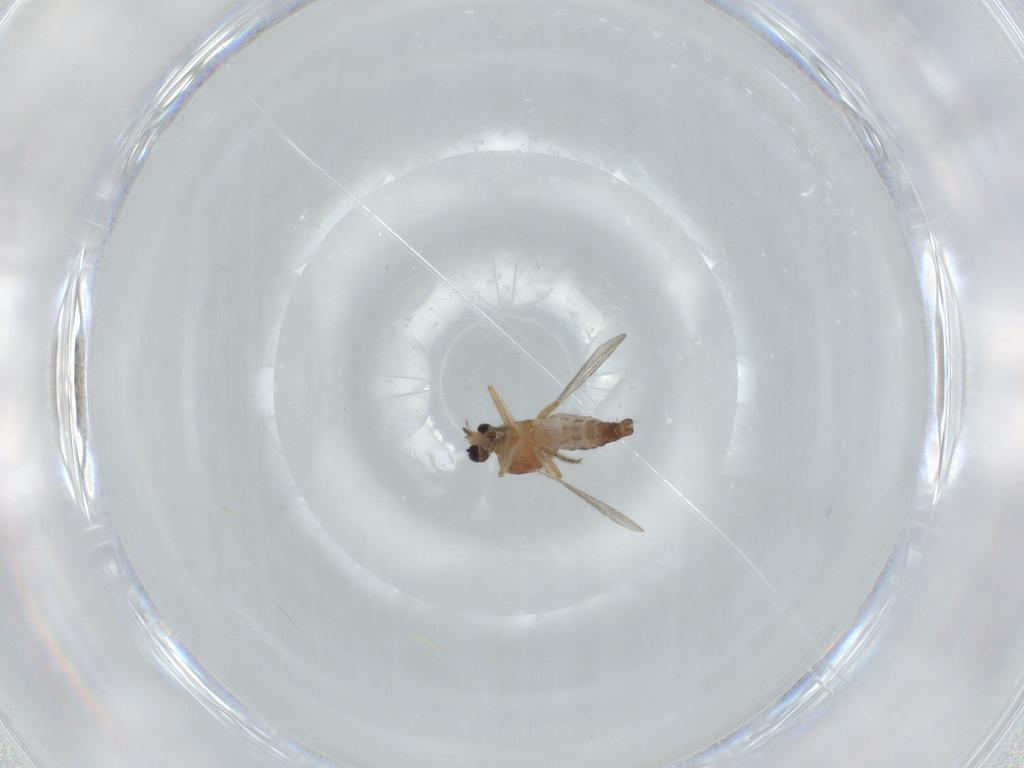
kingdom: Animalia
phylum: Arthropoda
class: Insecta
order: Diptera
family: Ceratopogonidae
